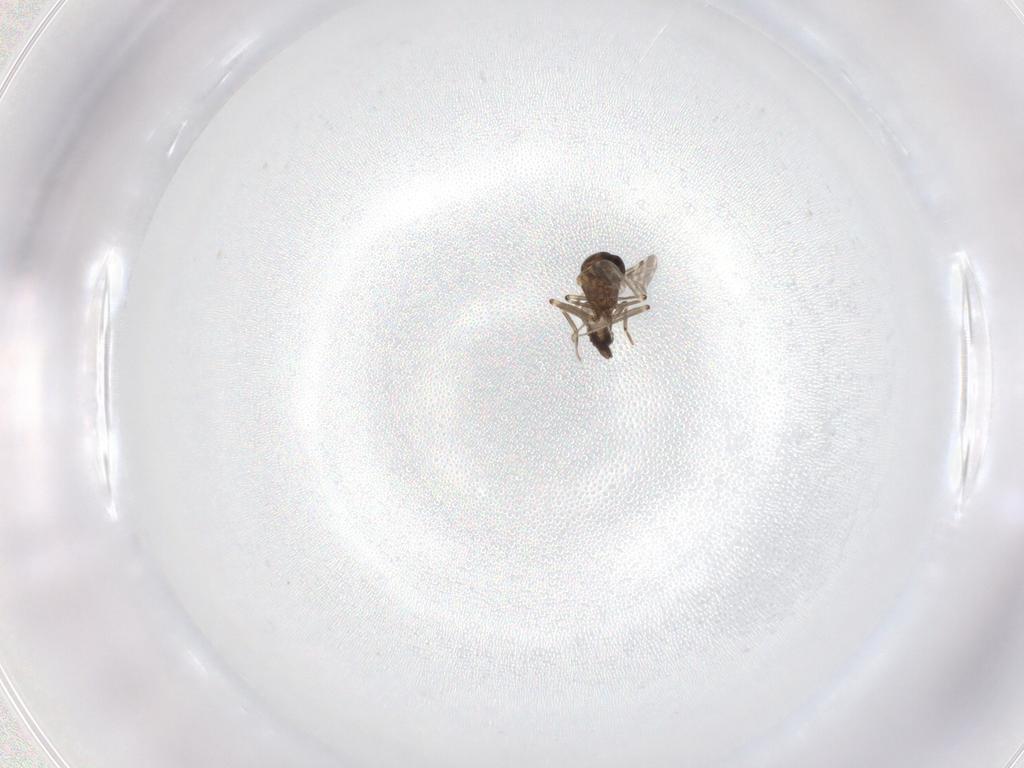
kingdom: Animalia
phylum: Arthropoda
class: Insecta
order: Diptera
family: Ceratopogonidae
